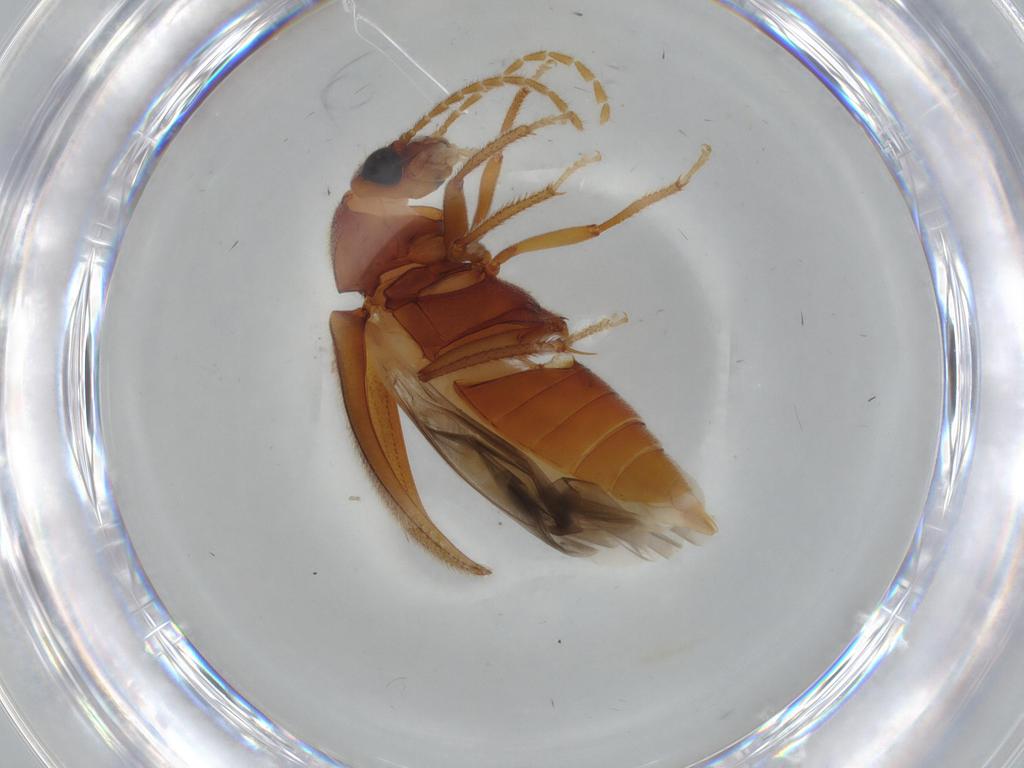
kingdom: Animalia
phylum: Arthropoda
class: Insecta
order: Coleoptera
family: Ptilodactylidae
